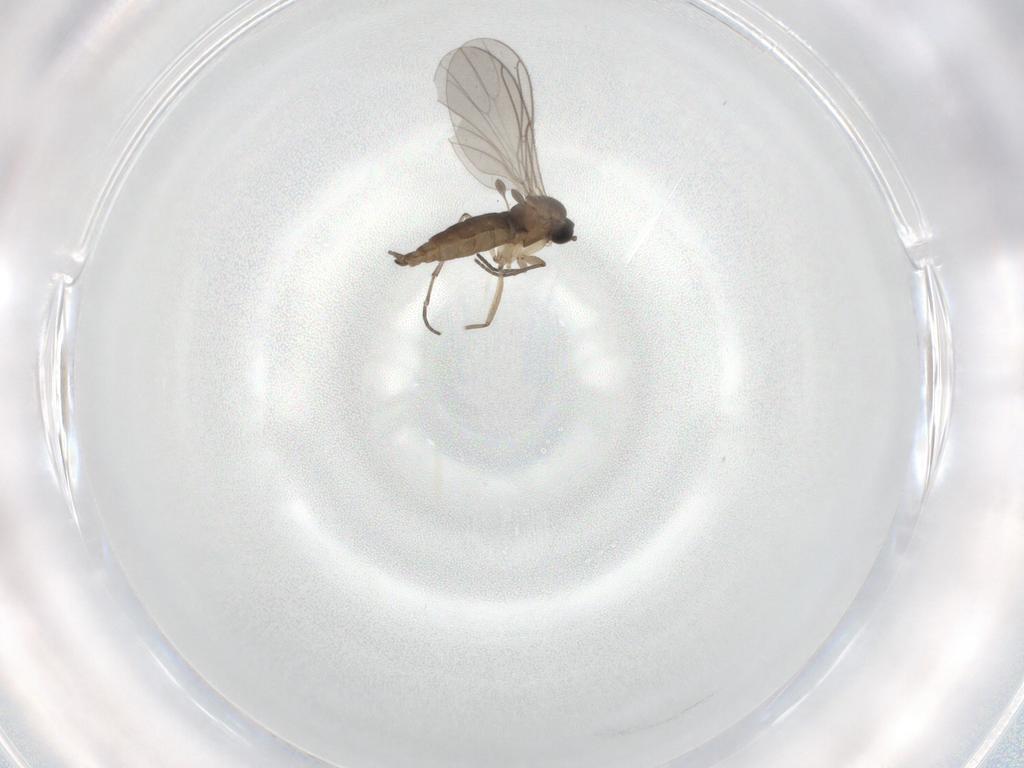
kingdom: Animalia
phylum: Arthropoda
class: Insecta
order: Diptera
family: Sciaridae
